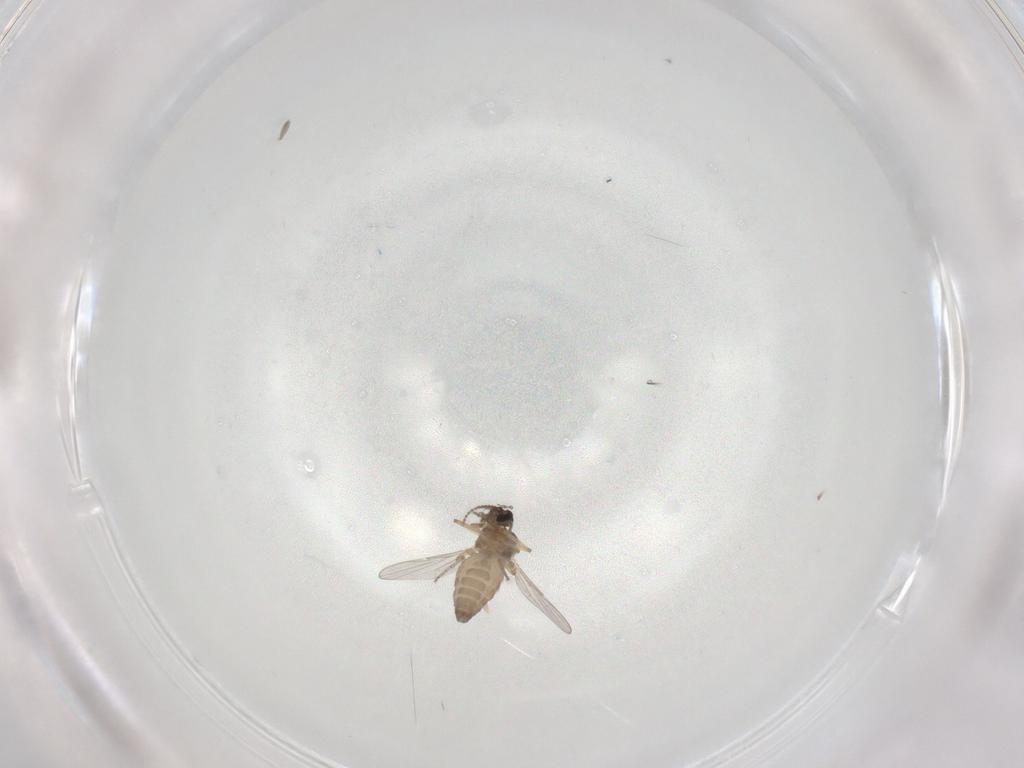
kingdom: Animalia
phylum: Arthropoda
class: Insecta
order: Diptera
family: Ceratopogonidae
